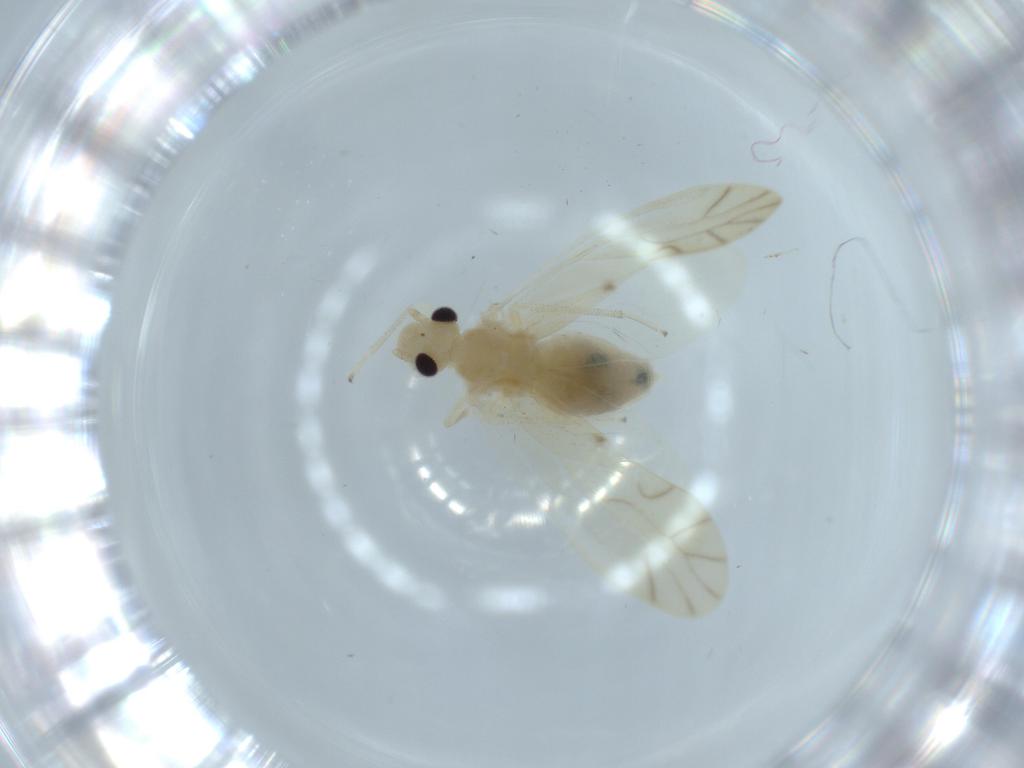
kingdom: Animalia
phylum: Arthropoda
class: Insecta
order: Psocodea
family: Caeciliusidae
